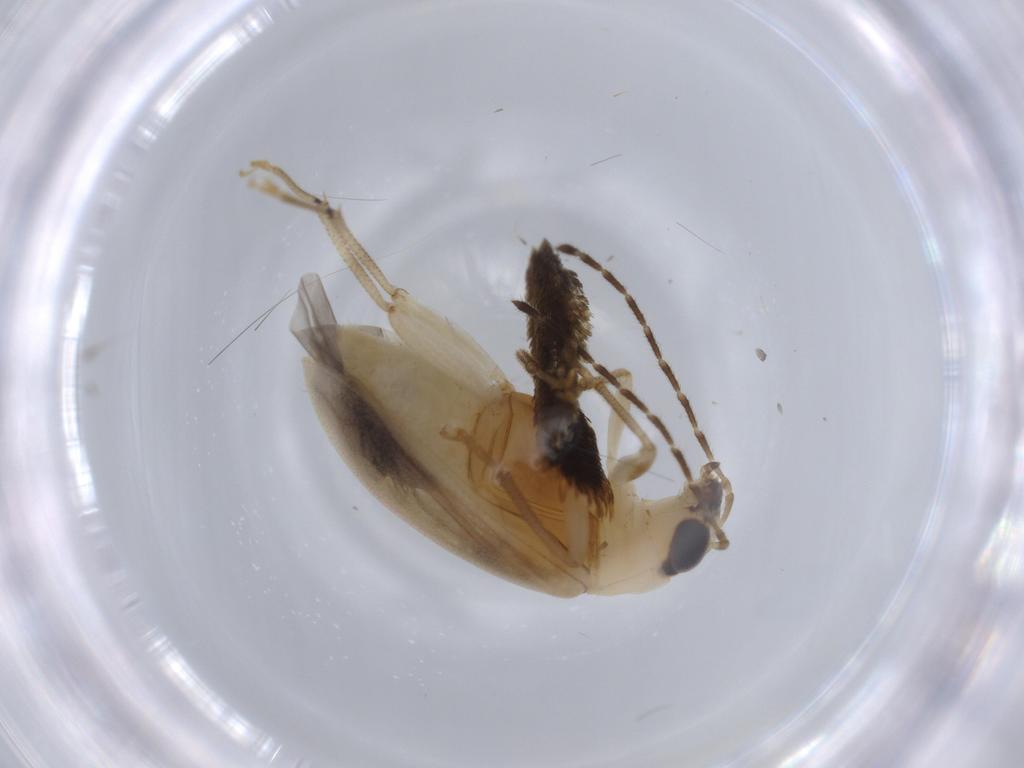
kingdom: Animalia
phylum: Arthropoda
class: Insecta
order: Coleoptera
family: Chrysomelidae
